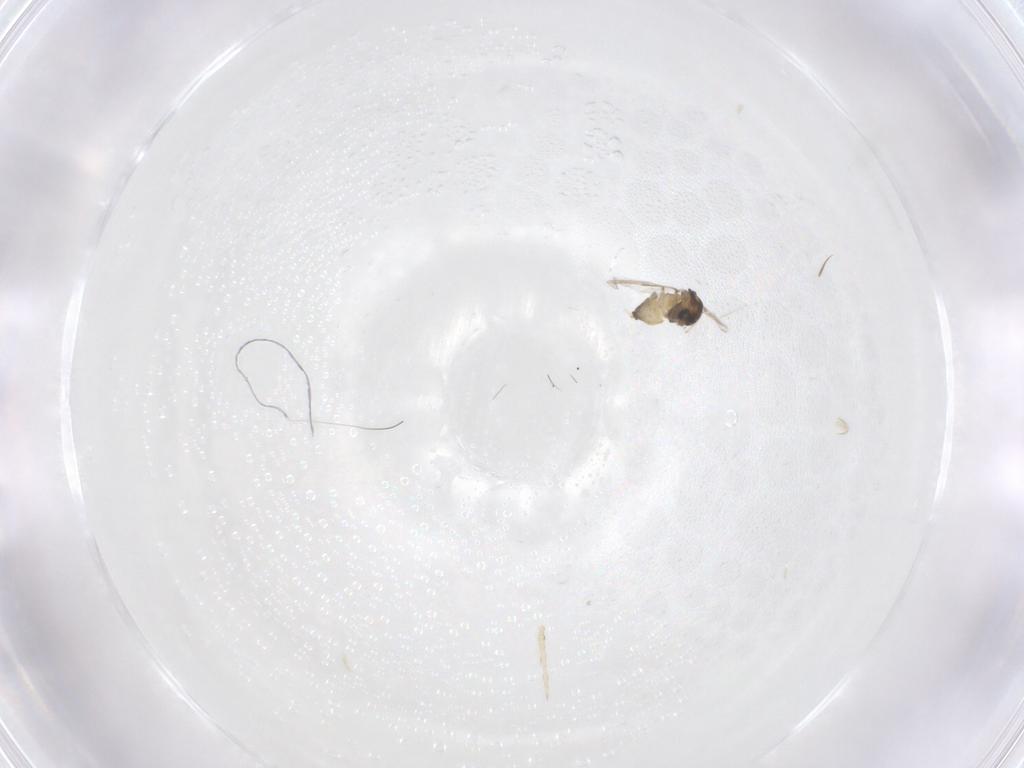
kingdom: Animalia
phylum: Arthropoda
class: Insecta
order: Diptera
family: Chironomidae
